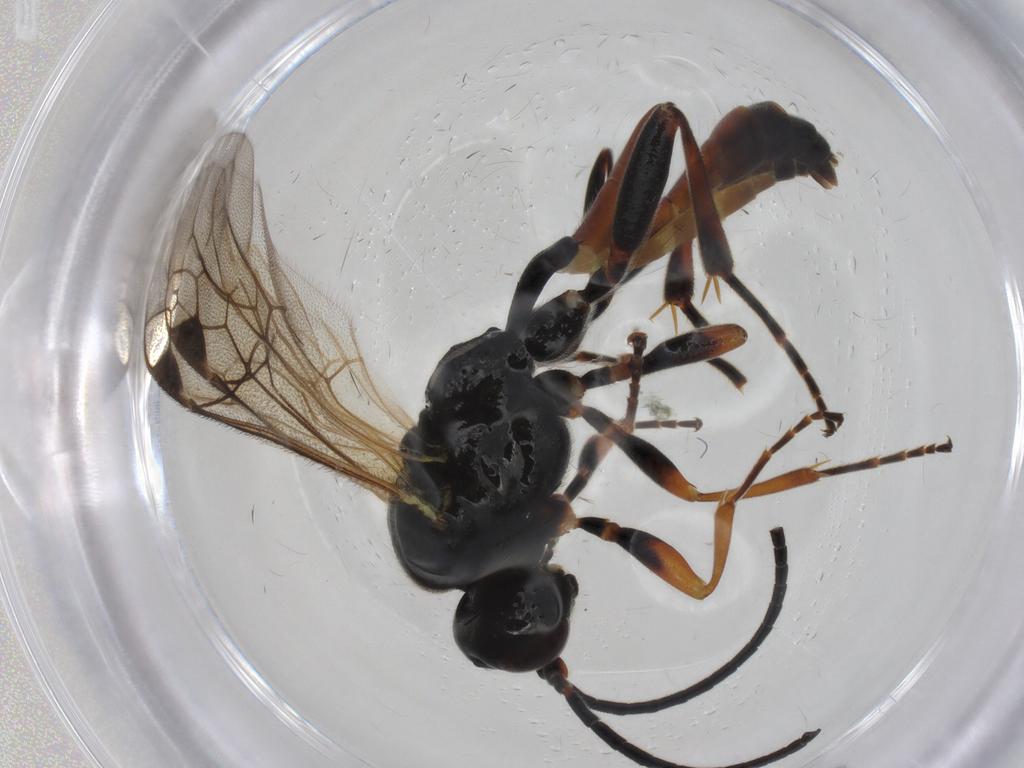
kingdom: Animalia
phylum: Arthropoda
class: Insecta
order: Hymenoptera
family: Ichneumonidae
